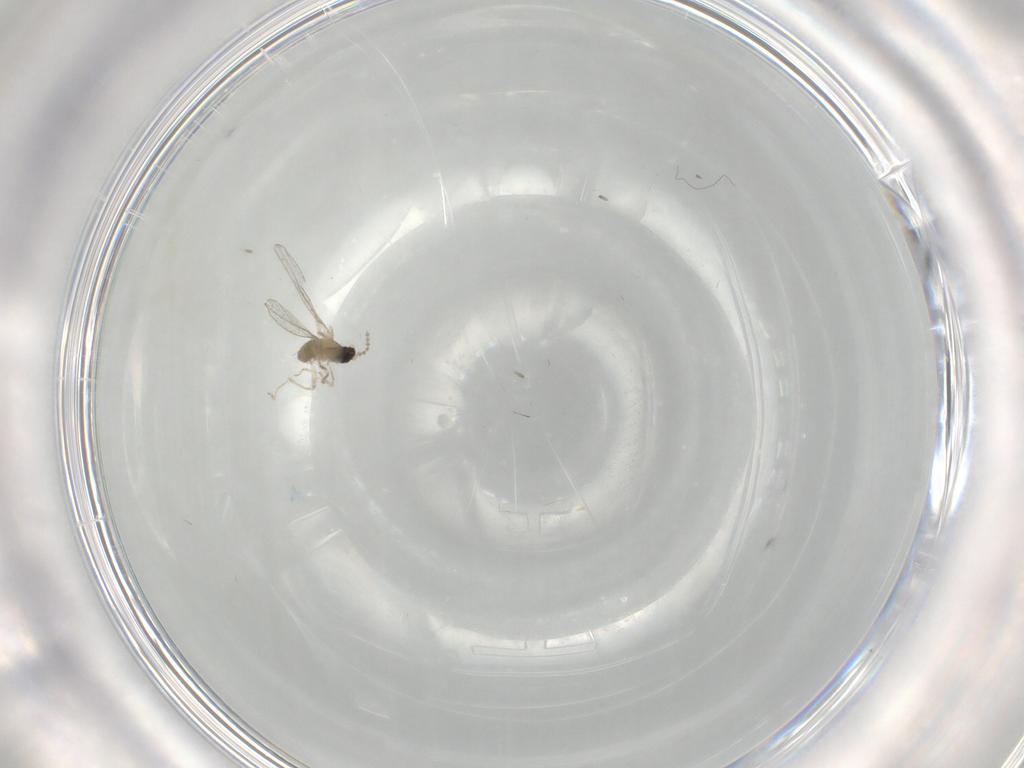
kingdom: Animalia
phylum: Arthropoda
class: Insecta
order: Diptera
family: Cecidomyiidae
